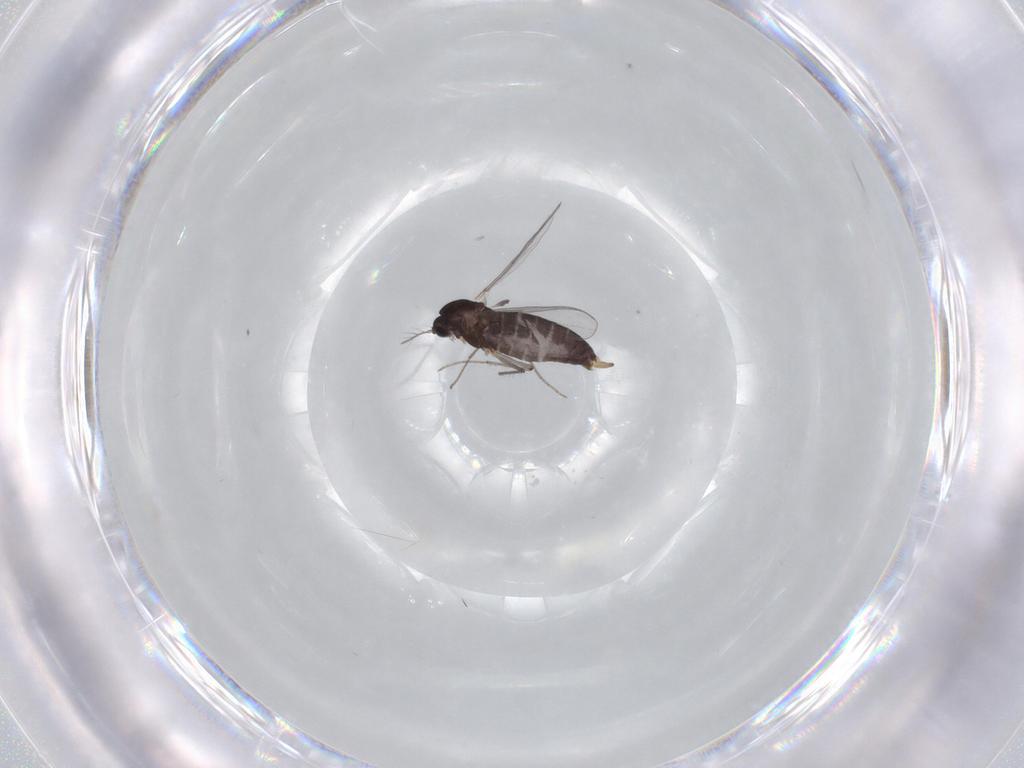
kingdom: Animalia
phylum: Arthropoda
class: Insecta
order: Diptera
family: Chironomidae
